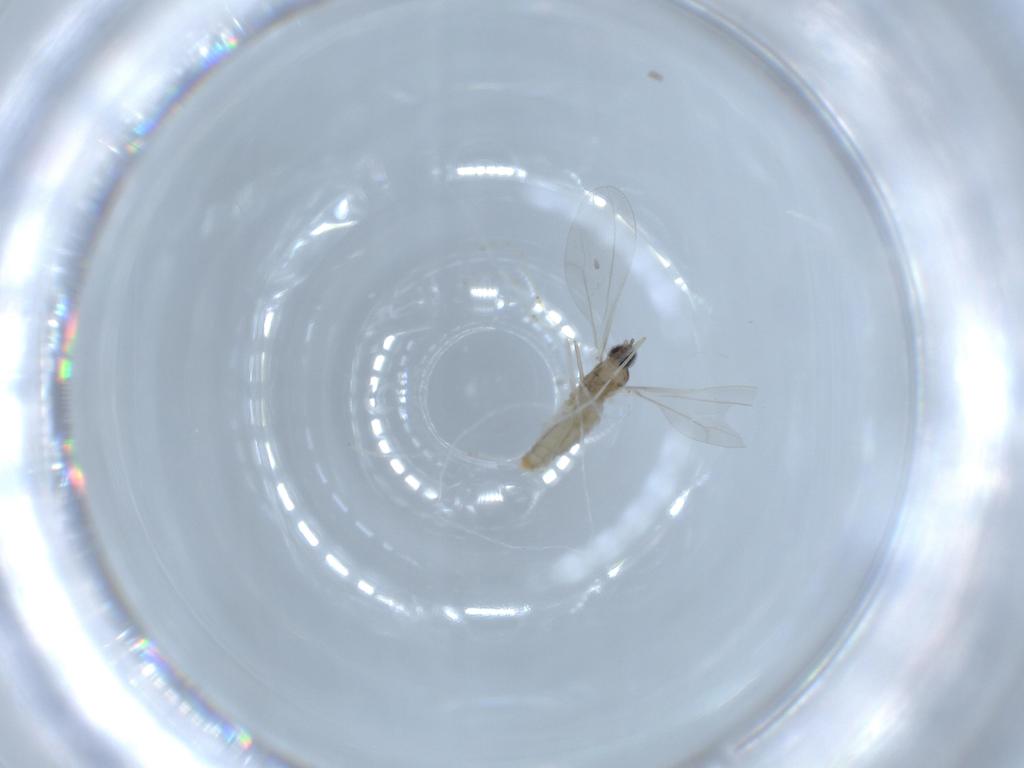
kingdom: Animalia
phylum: Arthropoda
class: Insecta
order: Diptera
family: Cecidomyiidae
